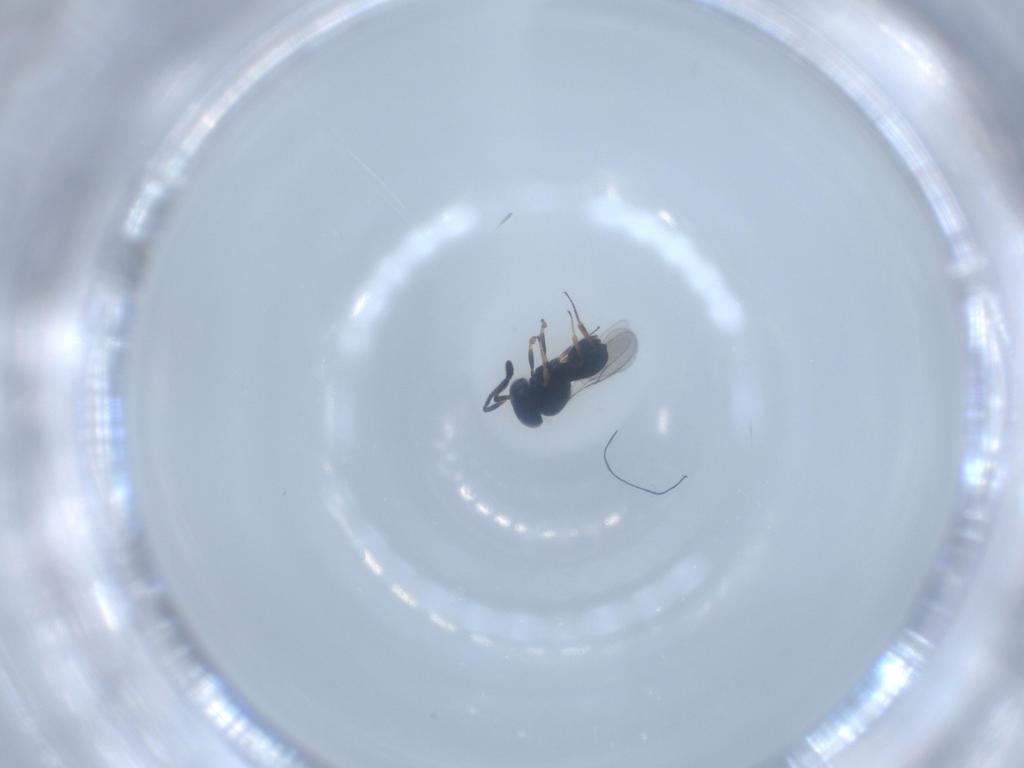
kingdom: Animalia
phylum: Arthropoda
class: Insecta
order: Hymenoptera
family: Scelionidae
